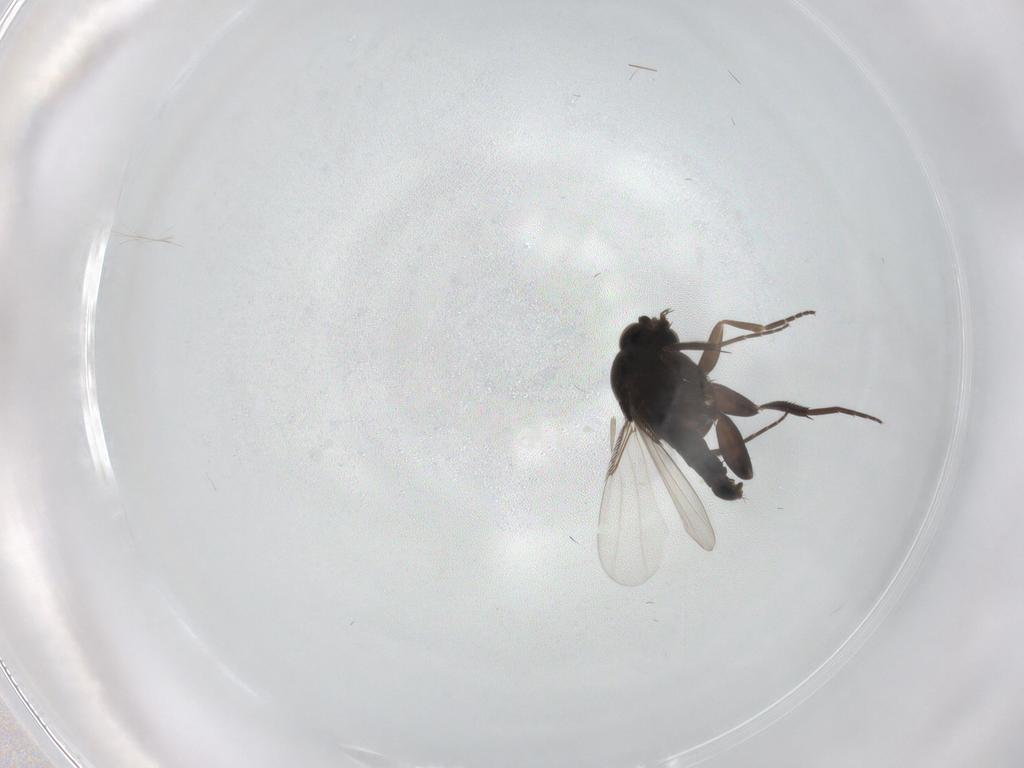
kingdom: Animalia
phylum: Arthropoda
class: Insecta
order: Diptera
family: Phoridae
